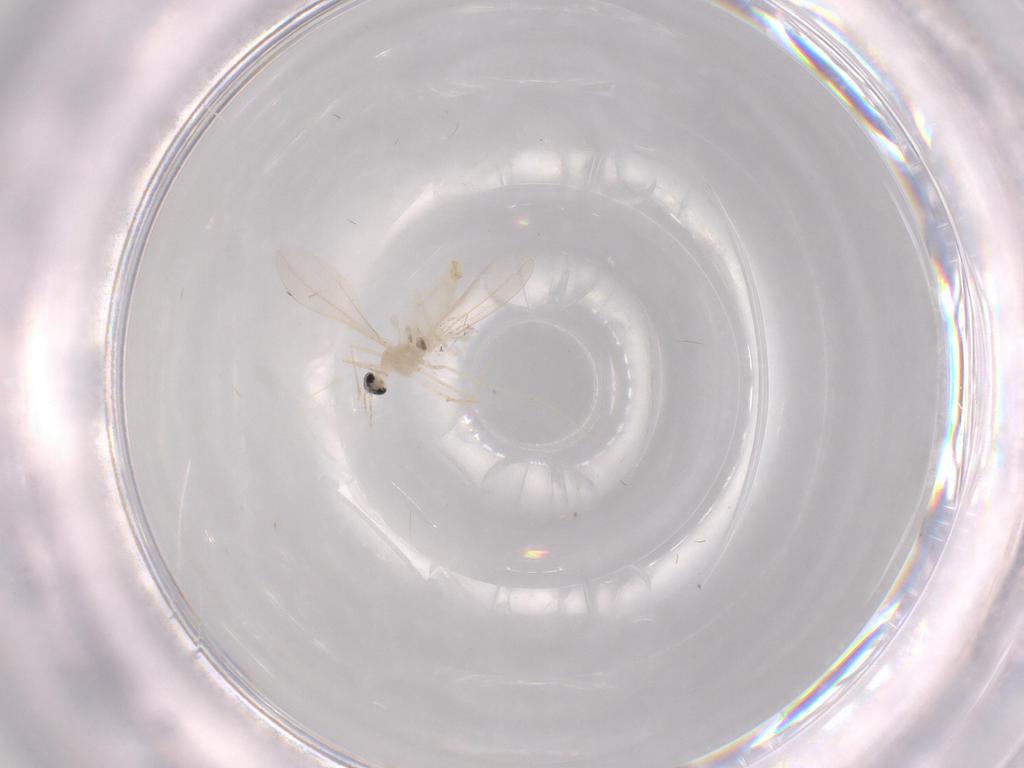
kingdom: Animalia
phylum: Arthropoda
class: Insecta
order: Diptera
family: Chironomidae
